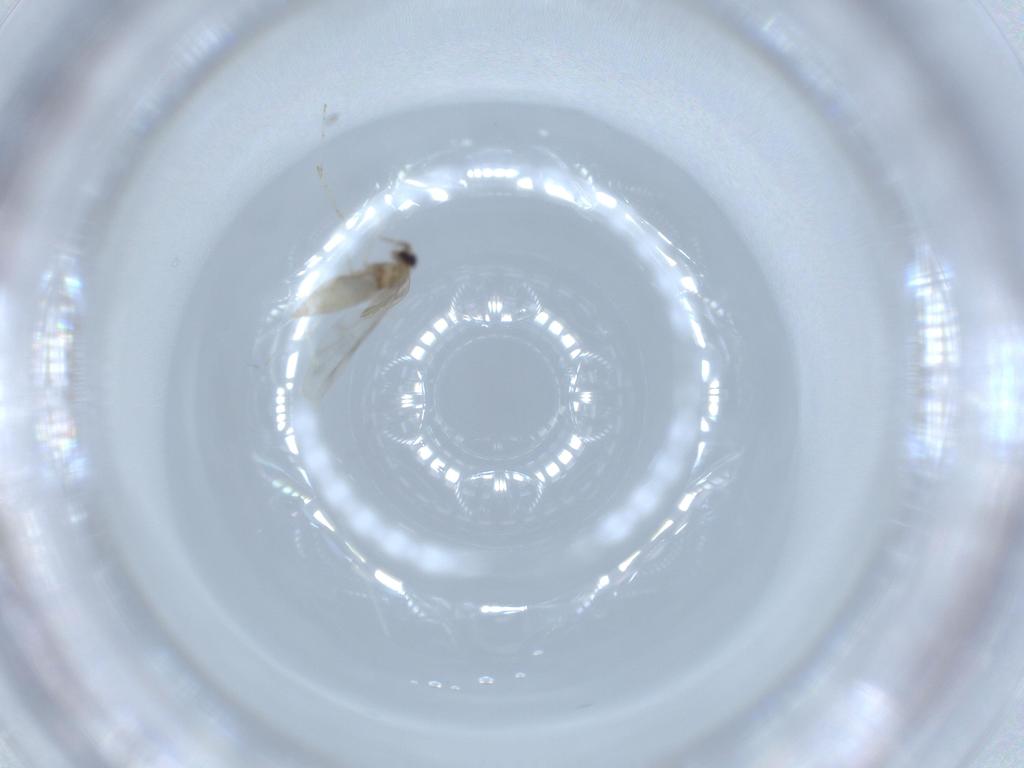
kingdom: Animalia
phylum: Arthropoda
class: Insecta
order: Diptera
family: Cecidomyiidae
